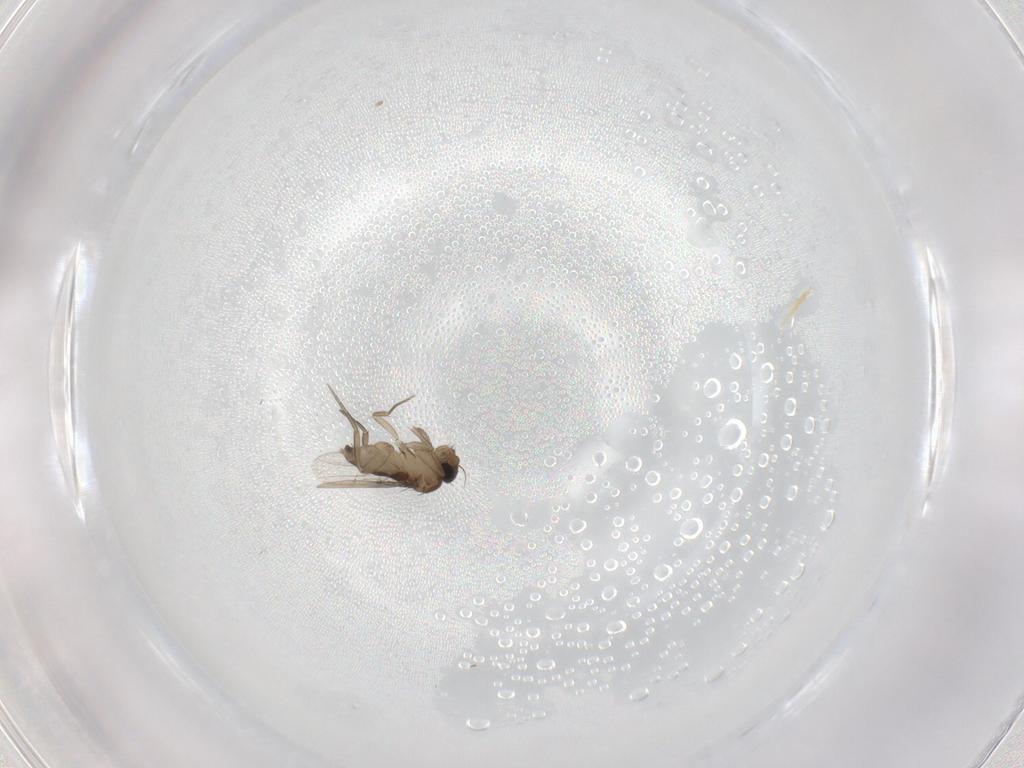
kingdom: Animalia
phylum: Arthropoda
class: Insecta
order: Diptera
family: Phoridae
